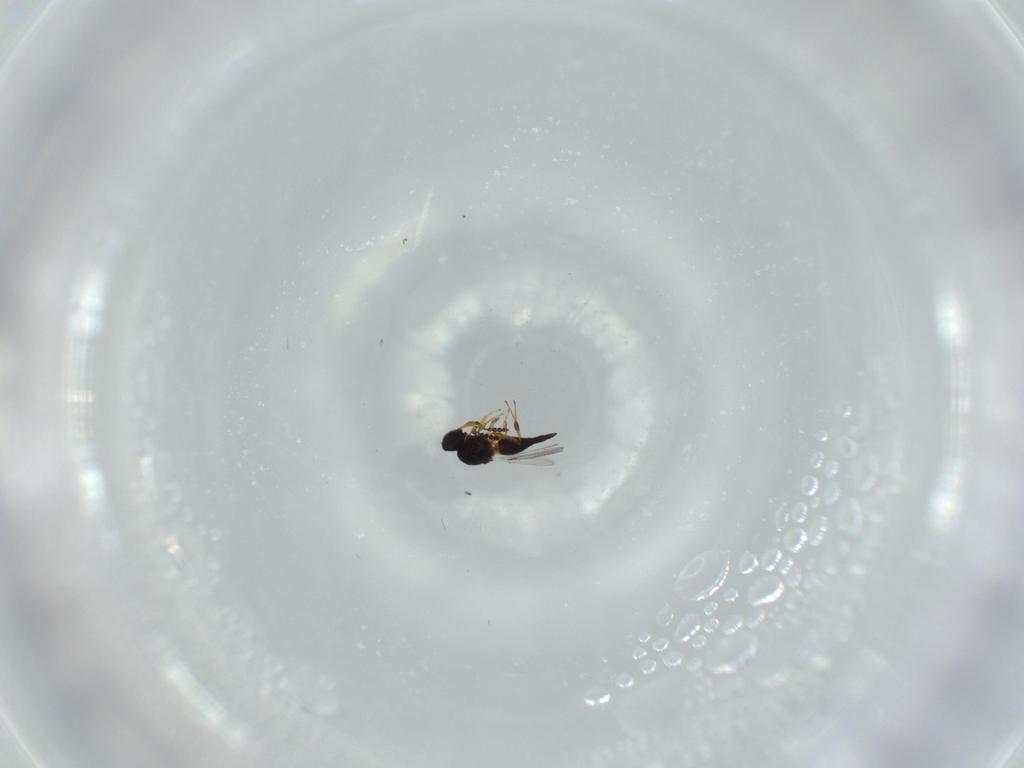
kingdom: Animalia
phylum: Arthropoda
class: Insecta
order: Hymenoptera
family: Platygastridae
